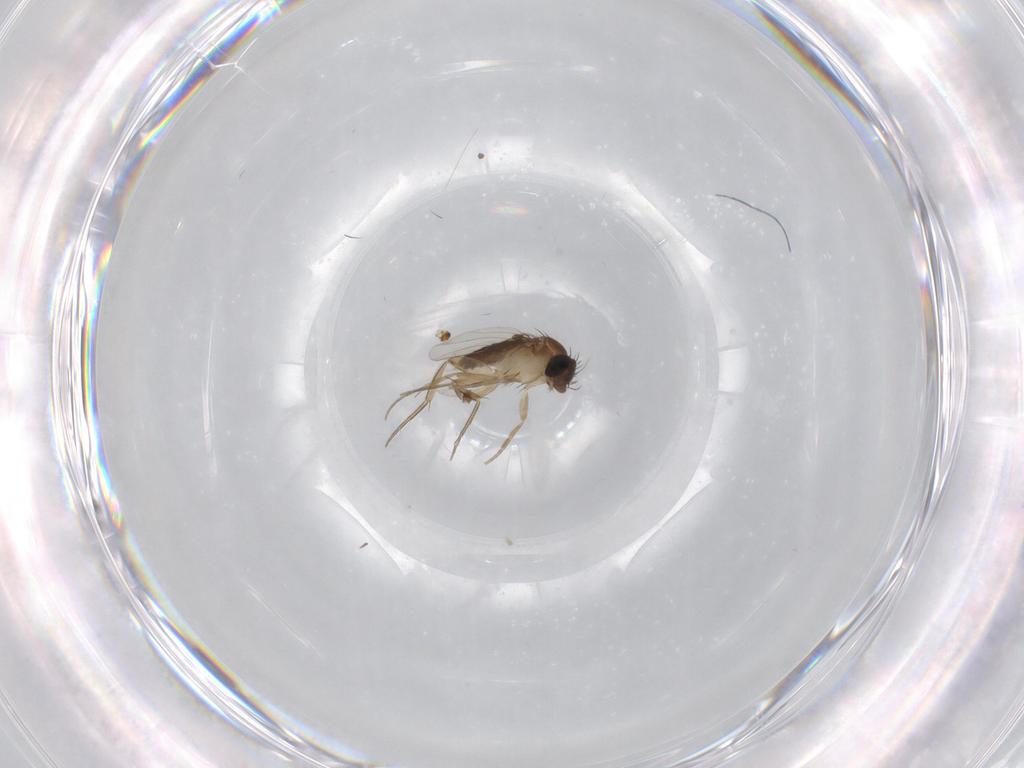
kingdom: Animalia
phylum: Arthropoda
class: Insecta
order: Diptera
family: Phoridae
